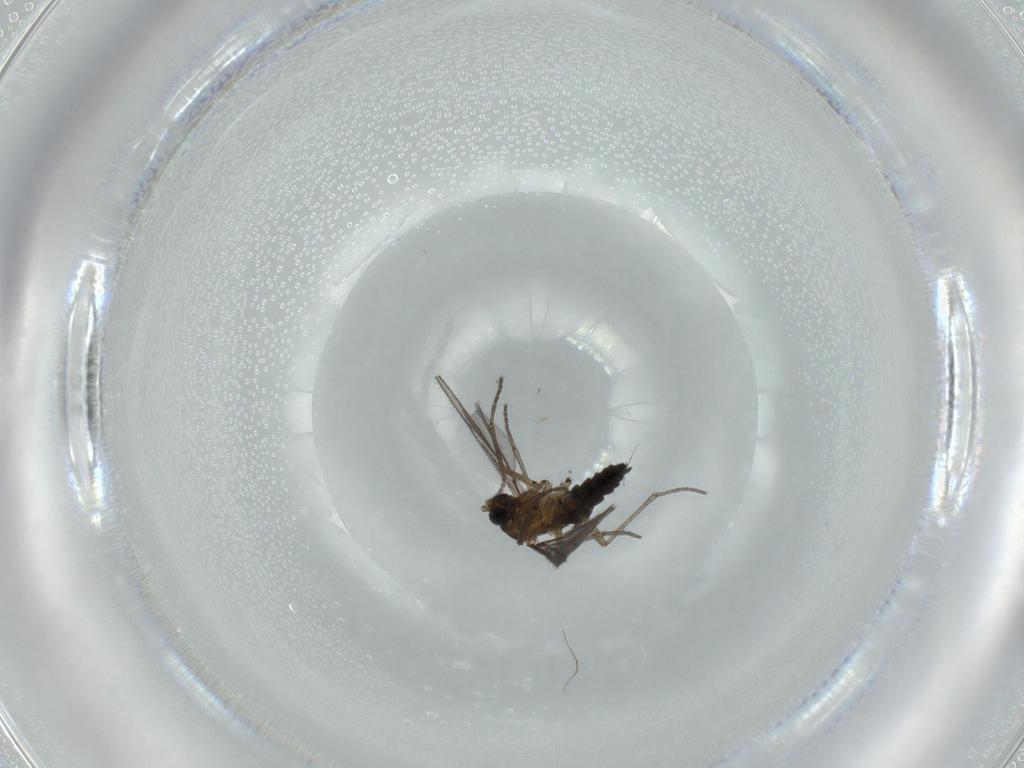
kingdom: Animalia
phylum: Arthropoda
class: Insecta
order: Diptera
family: Sciaridae
